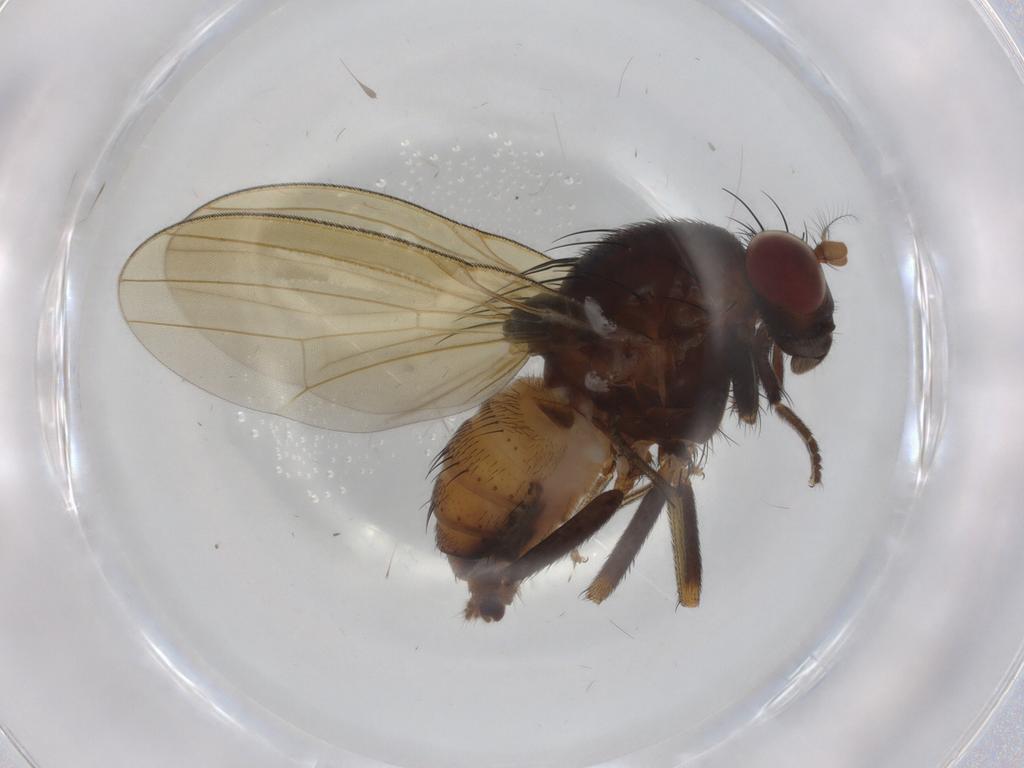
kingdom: Animalia
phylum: Arthropoda
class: Insecta
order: Diptera
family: Lauxaniidae
